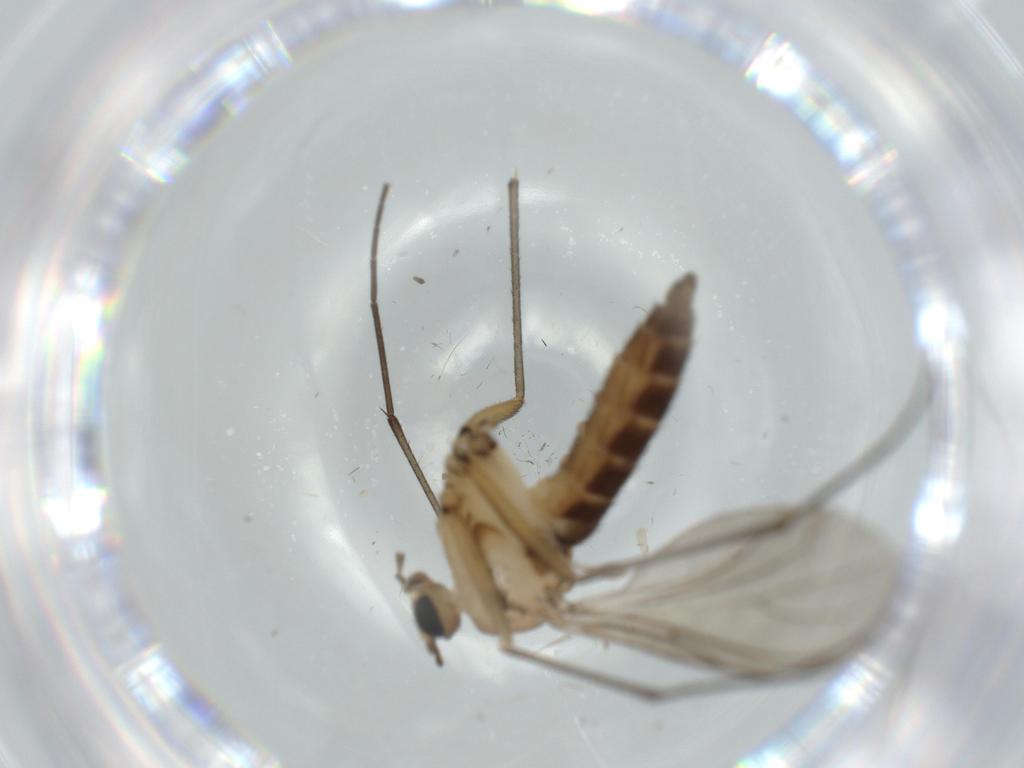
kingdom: Animalia
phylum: Arthropoda
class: Insecta
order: Diptera
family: Sciaridae
